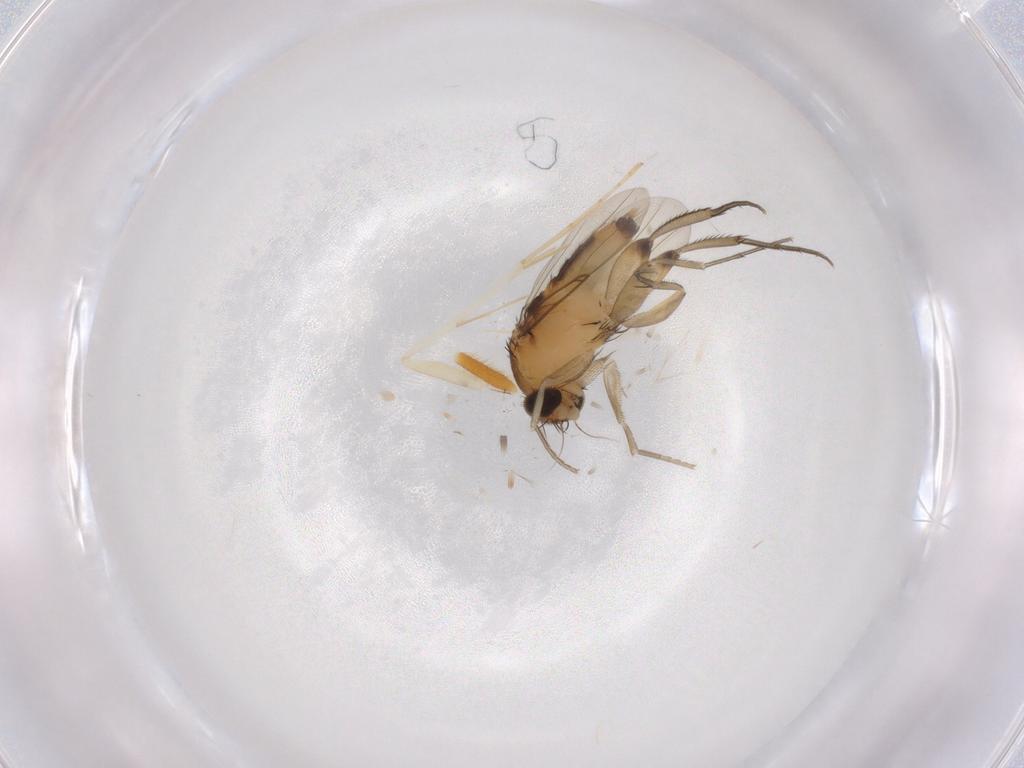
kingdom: Animalia
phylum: Arthropoda
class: Insecta
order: Diptera
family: Phoridae
